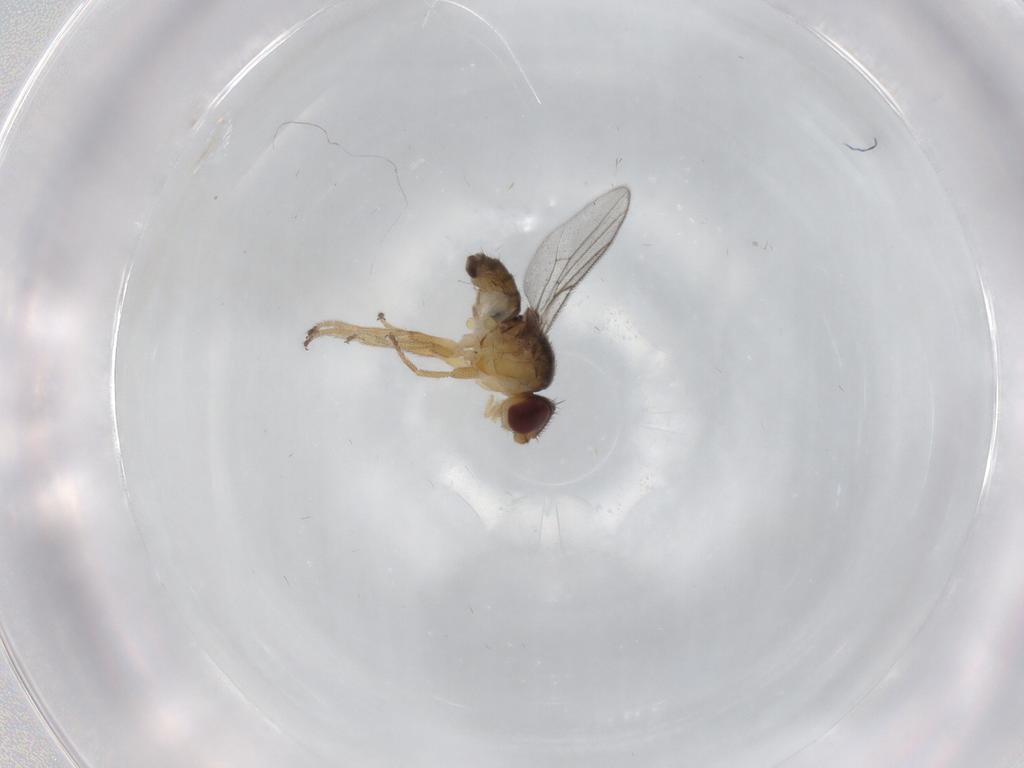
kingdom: Animalia
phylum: Arthropoda
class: Insecta
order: Diptera
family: Chloropidae
